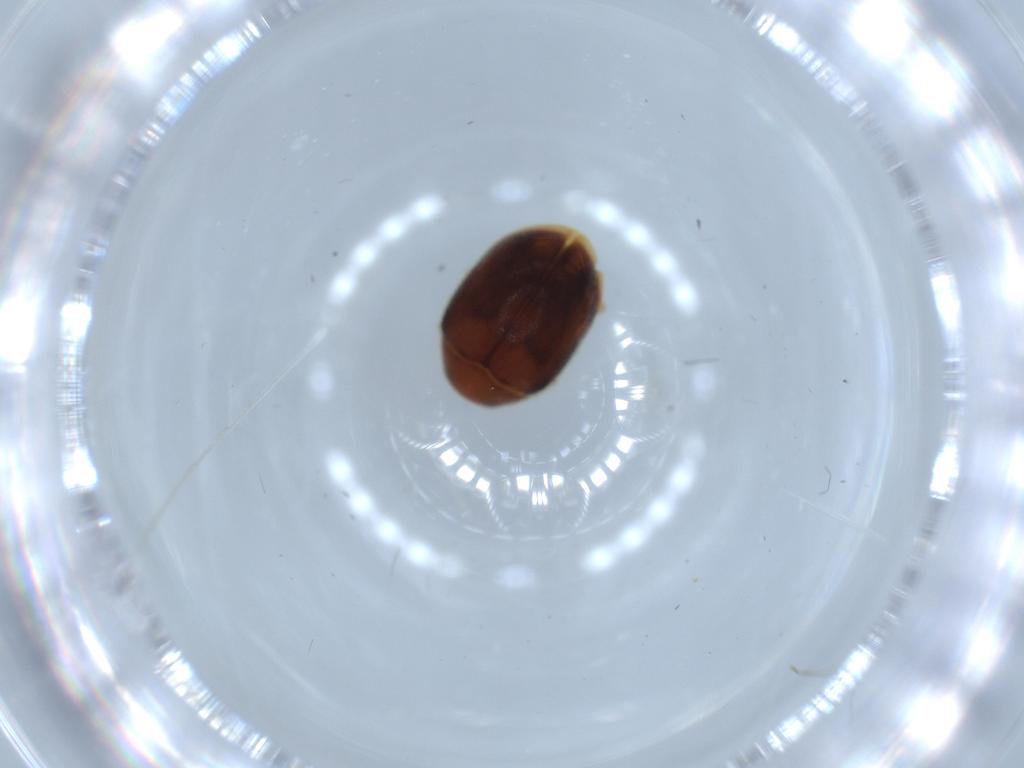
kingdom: Animalia
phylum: Arthropoda
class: Insecta
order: Coleoptera
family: Coccinellidae
